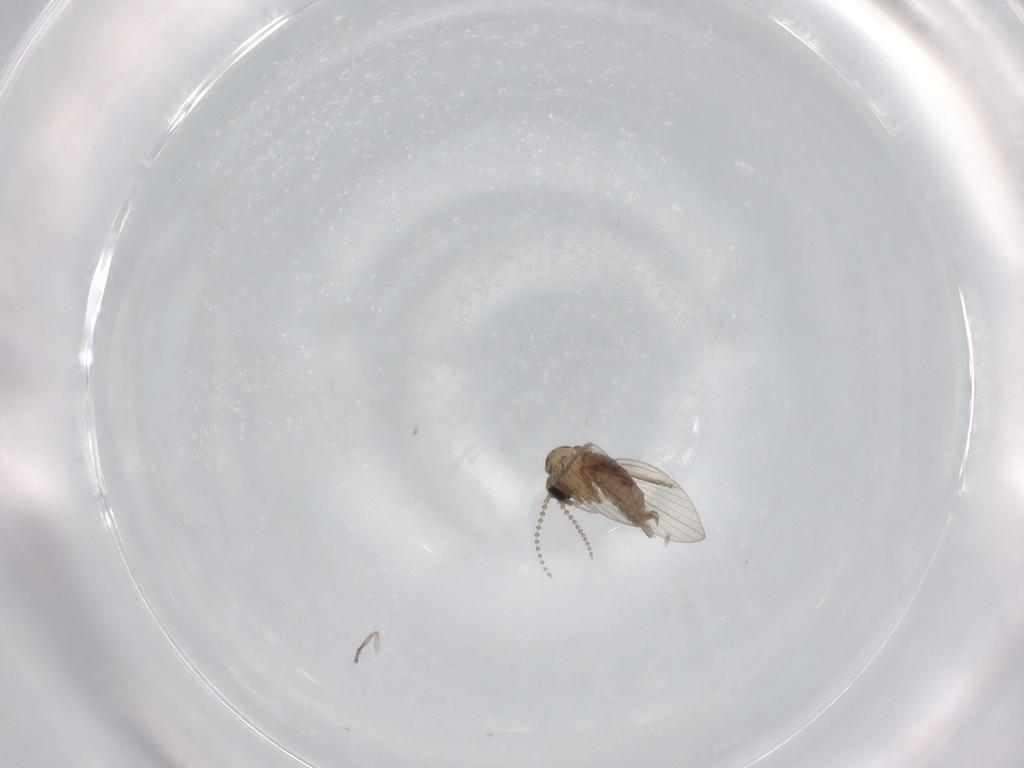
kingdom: Animalia
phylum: Arthropoda
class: Insecta
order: Diptera
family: Psychodidae
